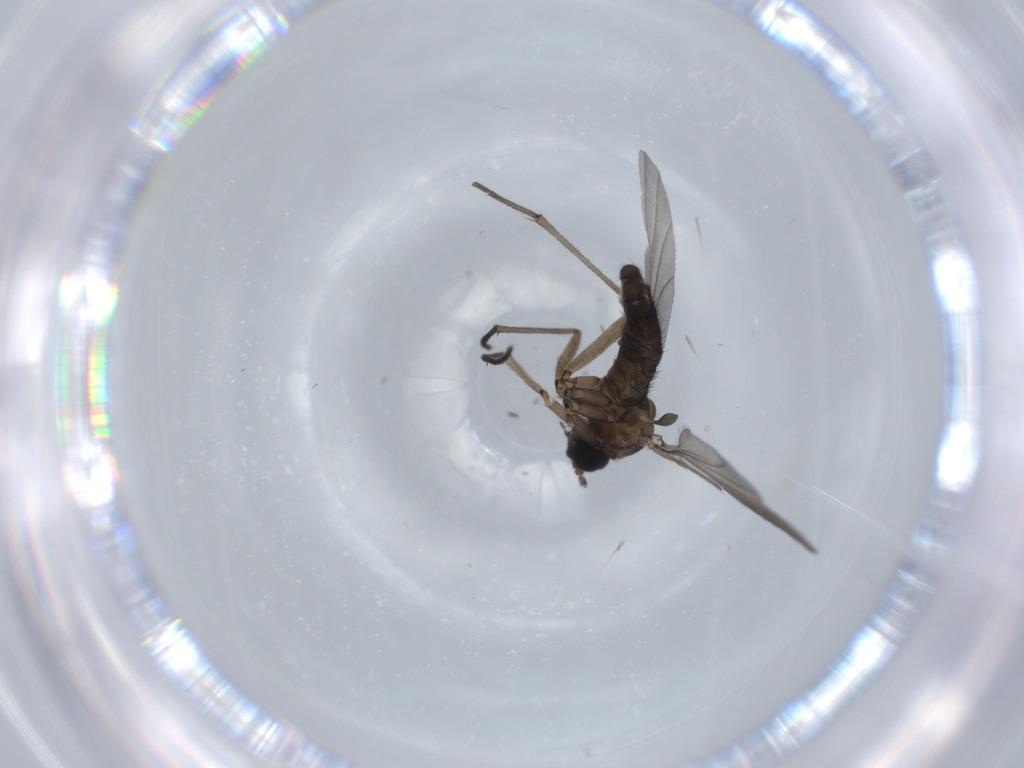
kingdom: Animalia
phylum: Arthropoda
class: Insecta
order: Diptera
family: Sciaridae
